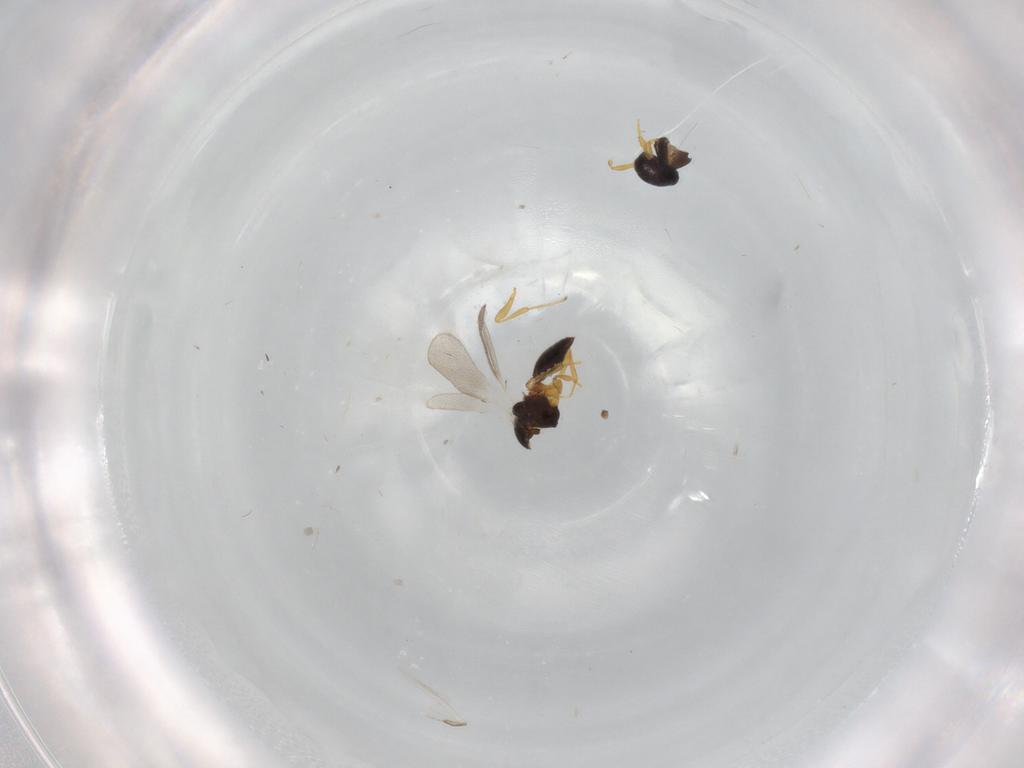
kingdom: Animalia
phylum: Arthropoda
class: Insecta
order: Hymenoptera
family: Platygastridae
